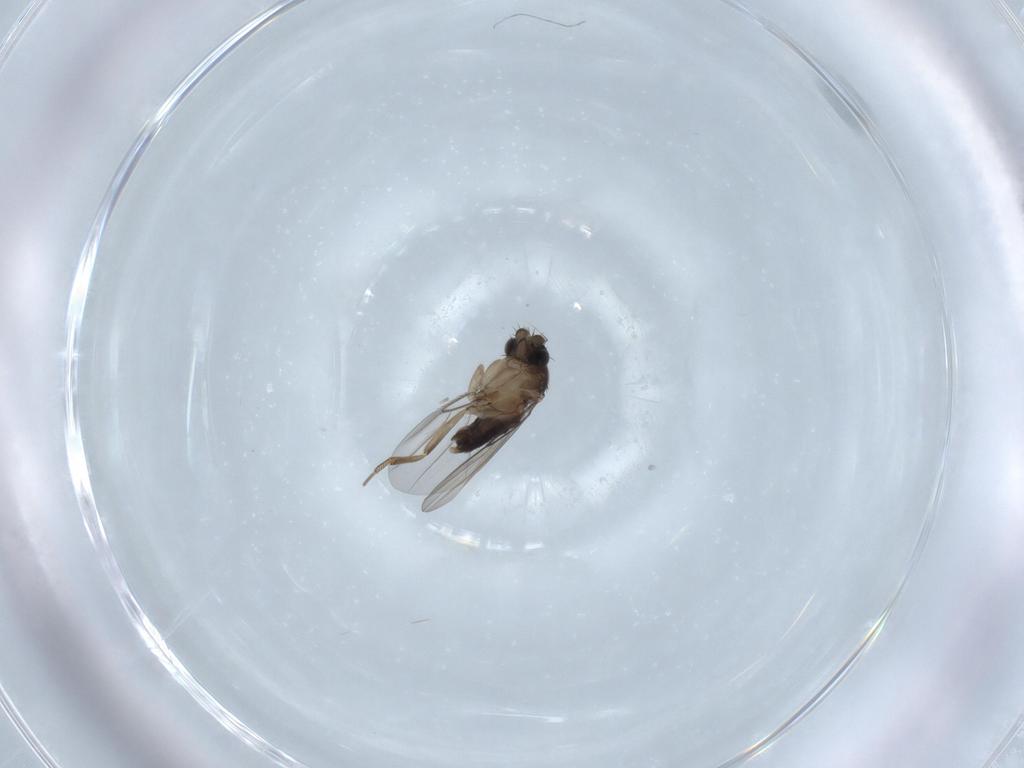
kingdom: Animalia
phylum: Arthropoda
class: Insecta
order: Diptera
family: Phoridae
